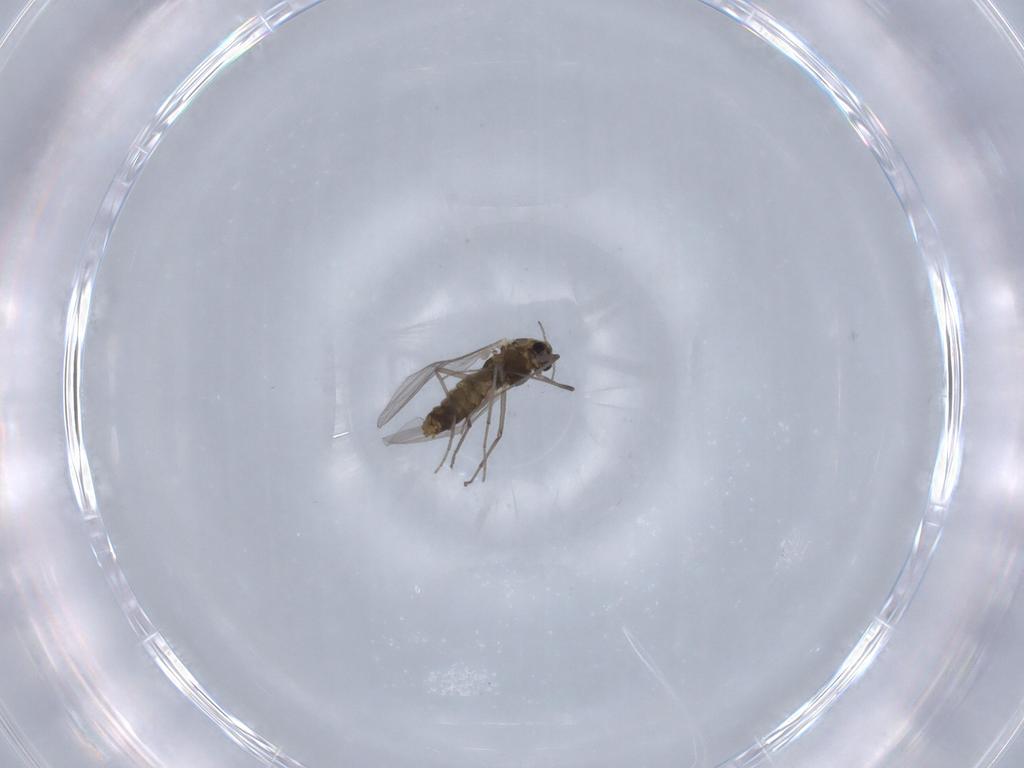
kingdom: Animalia
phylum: Arthropoda
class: Insecta
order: Diptera
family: Chironomidae
